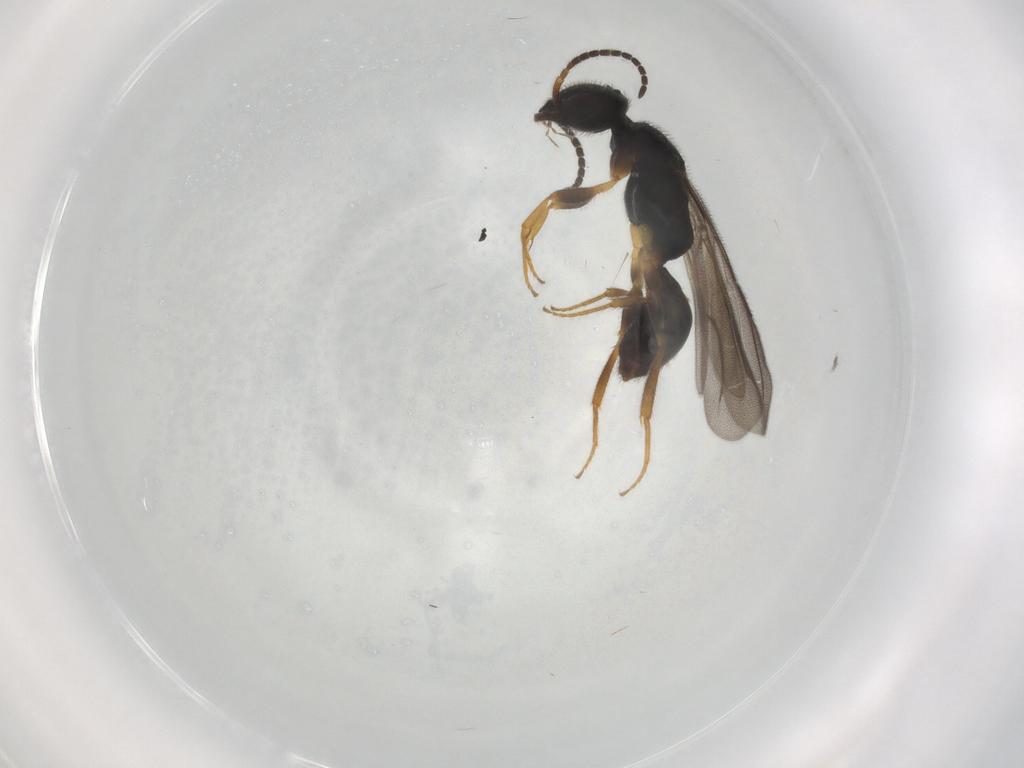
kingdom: Animalia
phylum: Arthropoda
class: Insecta
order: Hymenoptera
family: Bethylidae
